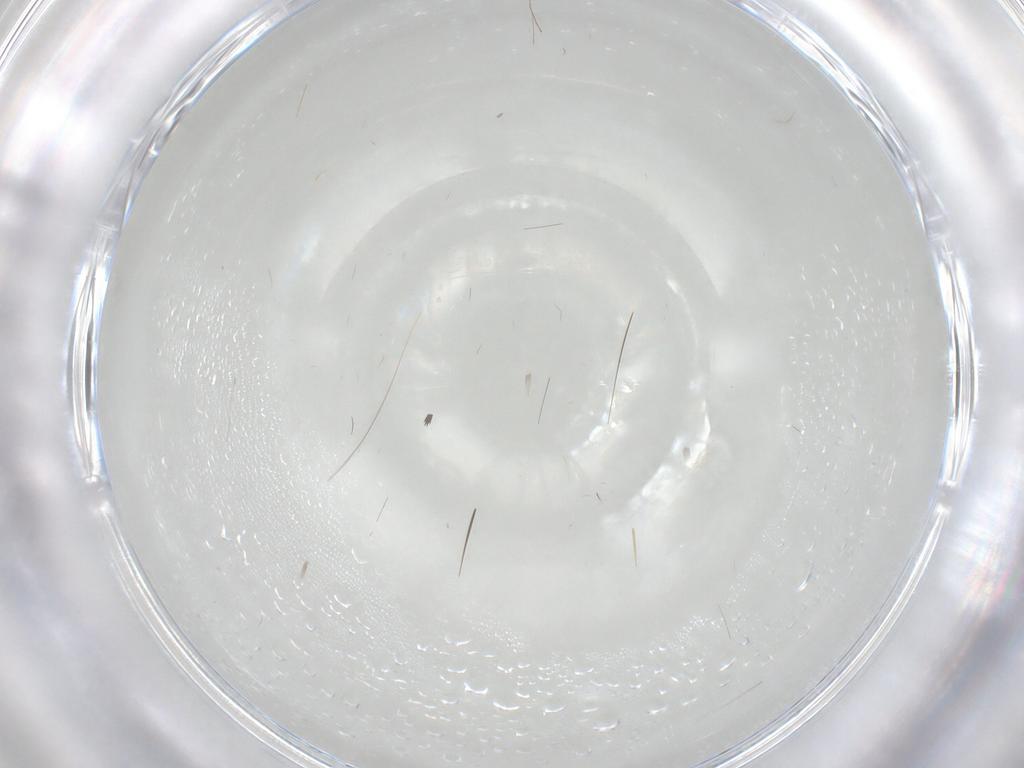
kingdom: Animalia
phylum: Arthropoda
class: Insecta
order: Diptera
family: Cecidomyiidae
